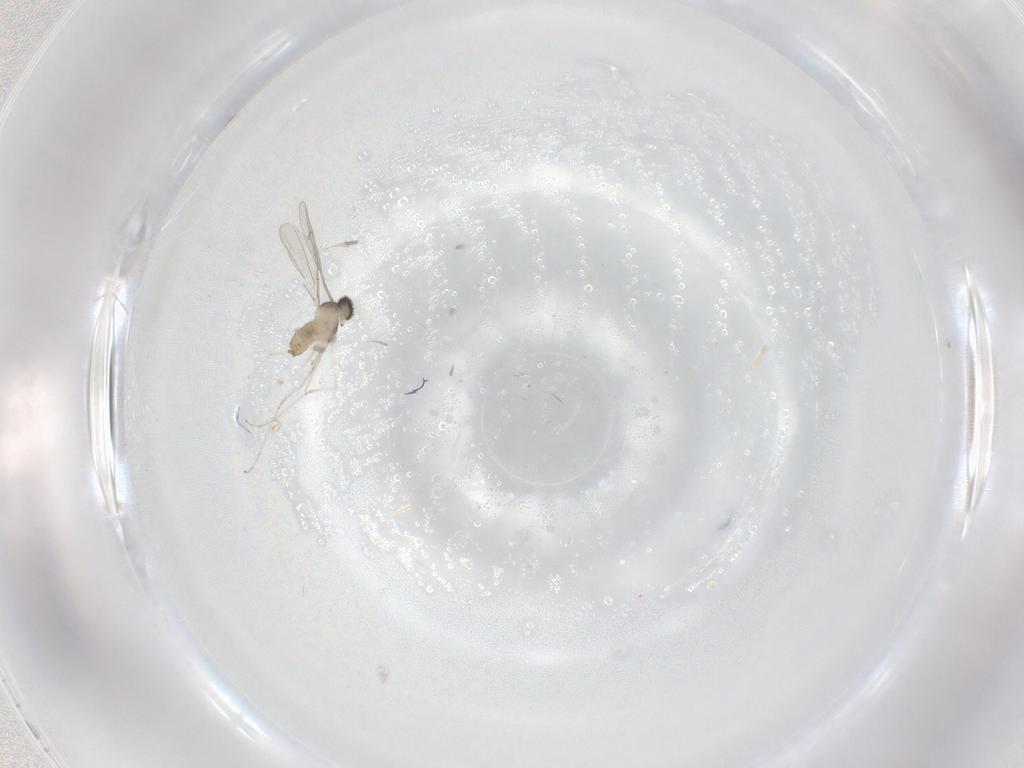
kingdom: Animalia
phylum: Arthropoda
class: Insecta
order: Diptera
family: Cecidomyiidae
